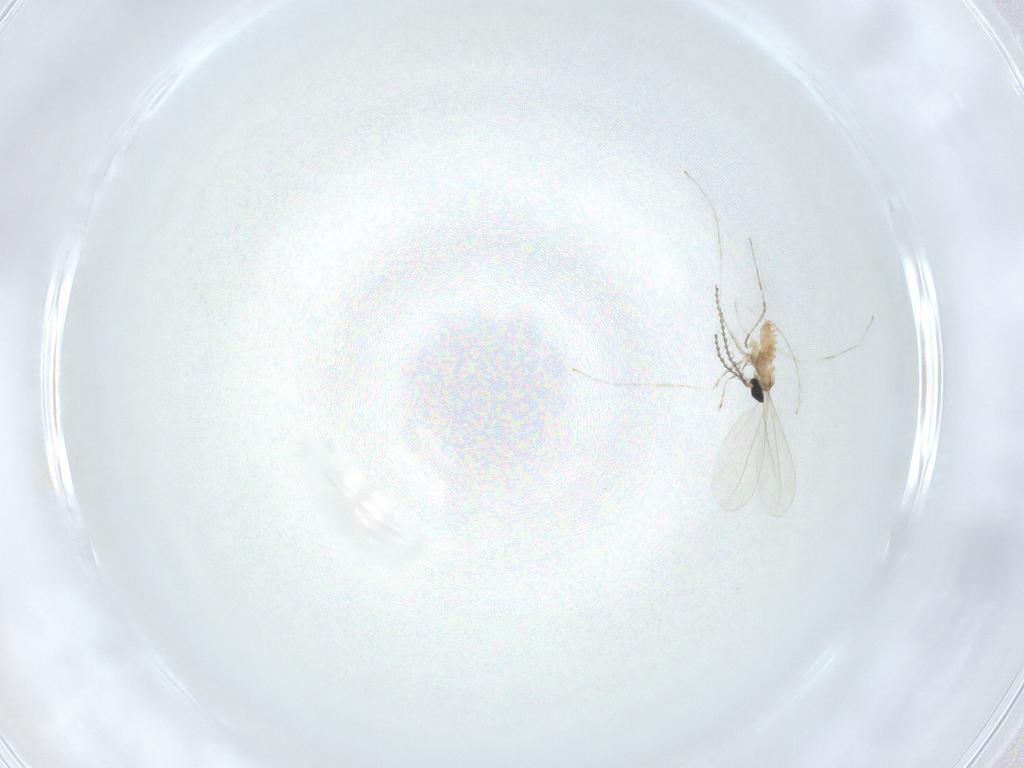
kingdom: Animalia
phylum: Arthropoda
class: Insecta
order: Diptera
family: Cecidomyiidae
